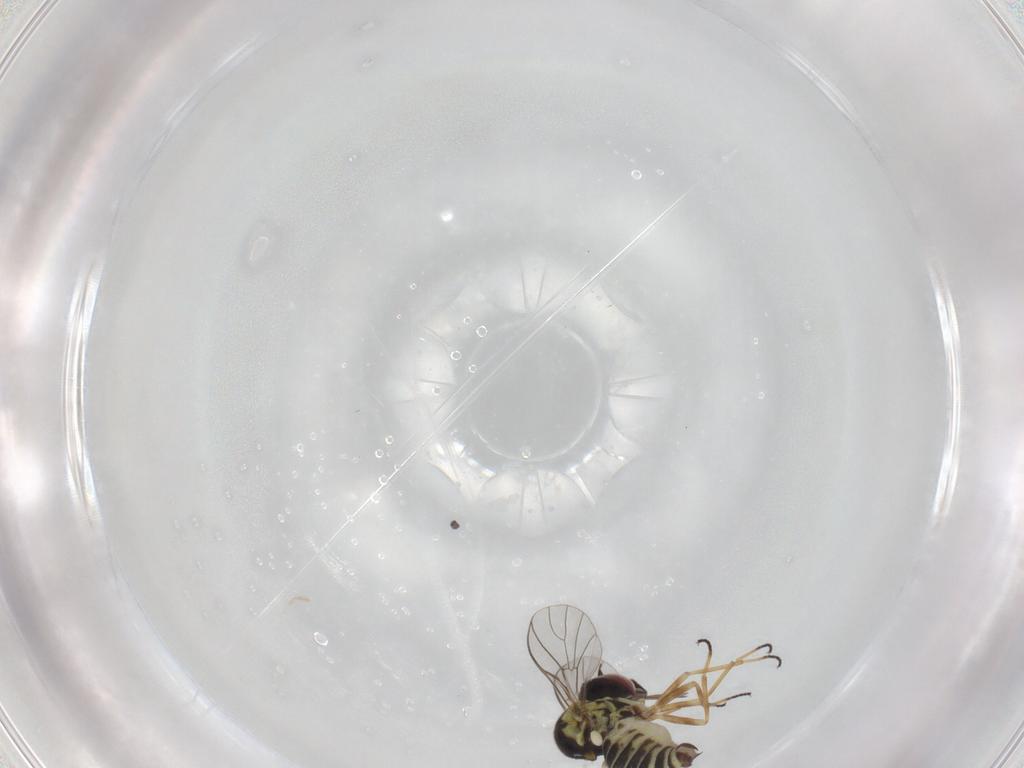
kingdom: Animalia
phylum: Arthropoda
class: Insecta
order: Diptera
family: Bombyliidae
